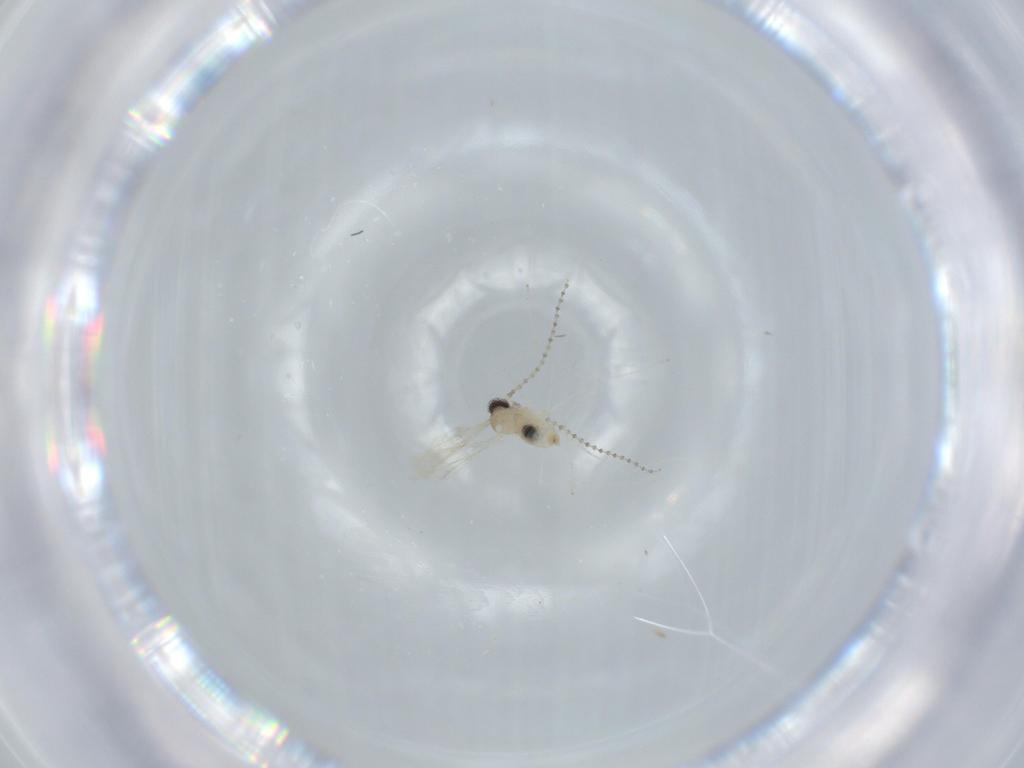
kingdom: Animalia
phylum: Arthropoda
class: Insecta
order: Diptera
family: Cecidomyiidae
